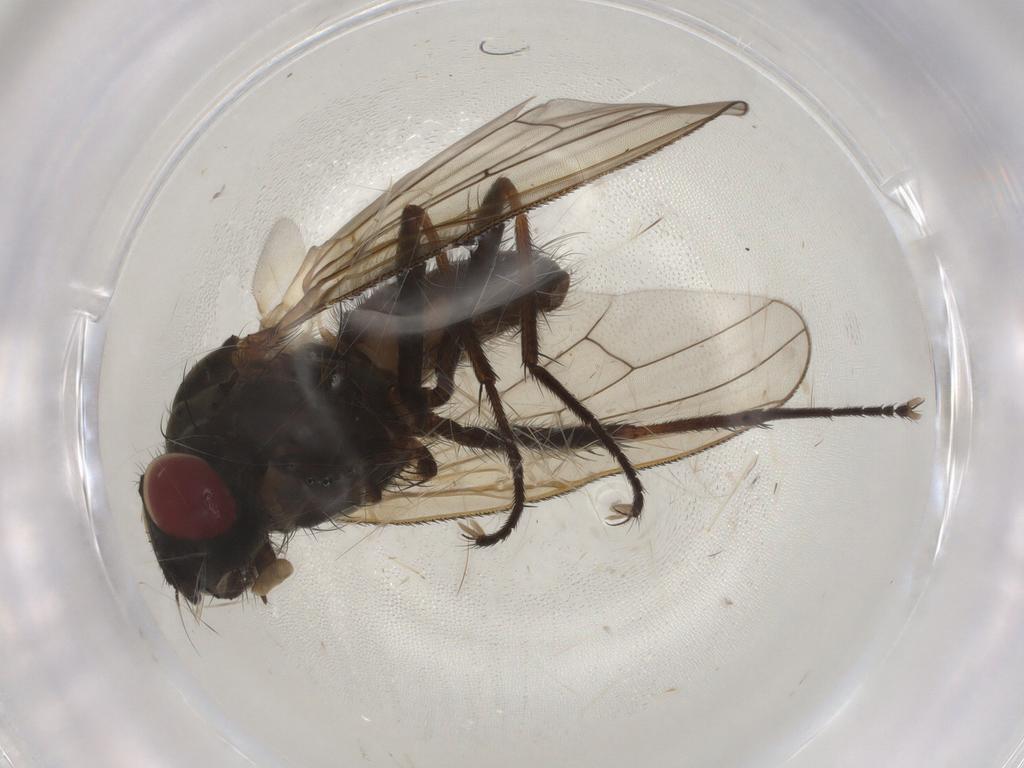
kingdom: Animalia
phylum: Arthropoda
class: Insecta
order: Diptera
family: Anthomyiidae
